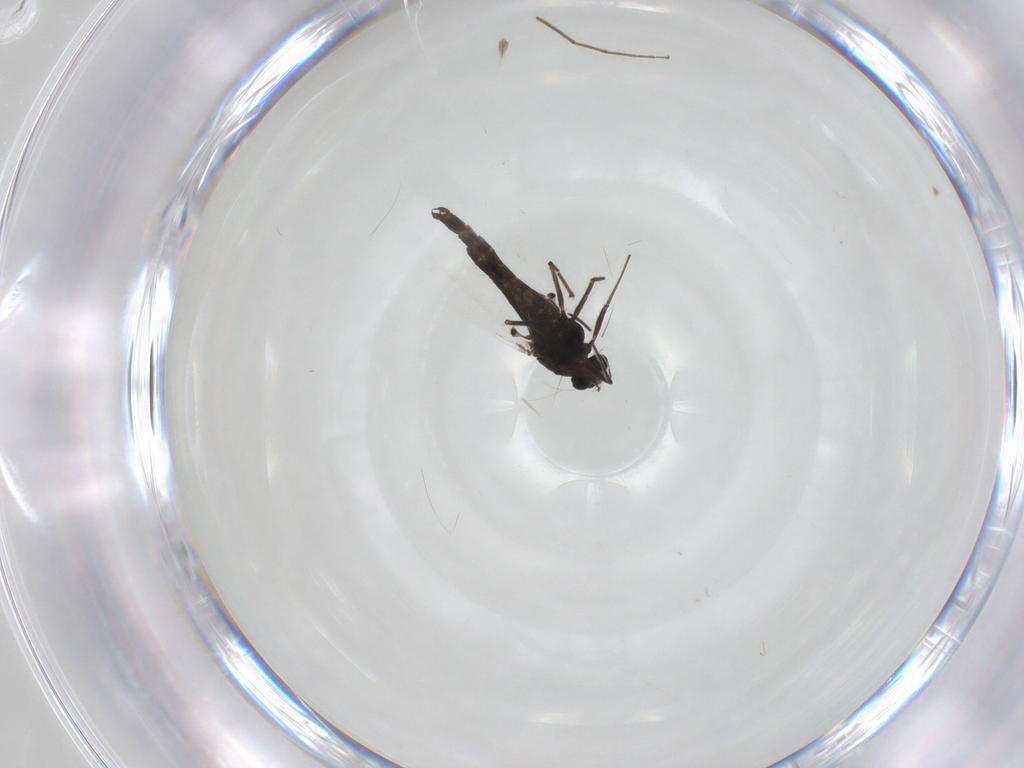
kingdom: Animalia
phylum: Arthropoda
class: Insecta
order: Diptera
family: Chironomidae
